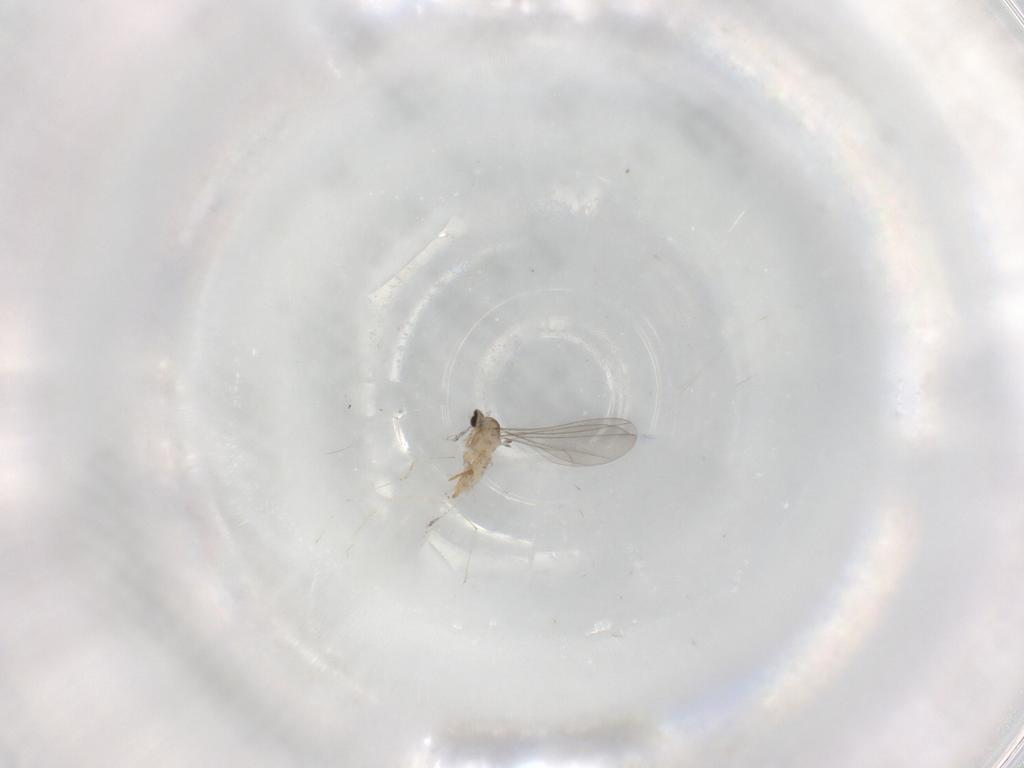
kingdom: Animalia
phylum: Arthropoda
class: Insecta
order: Diptera
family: Cecidomyiidae
